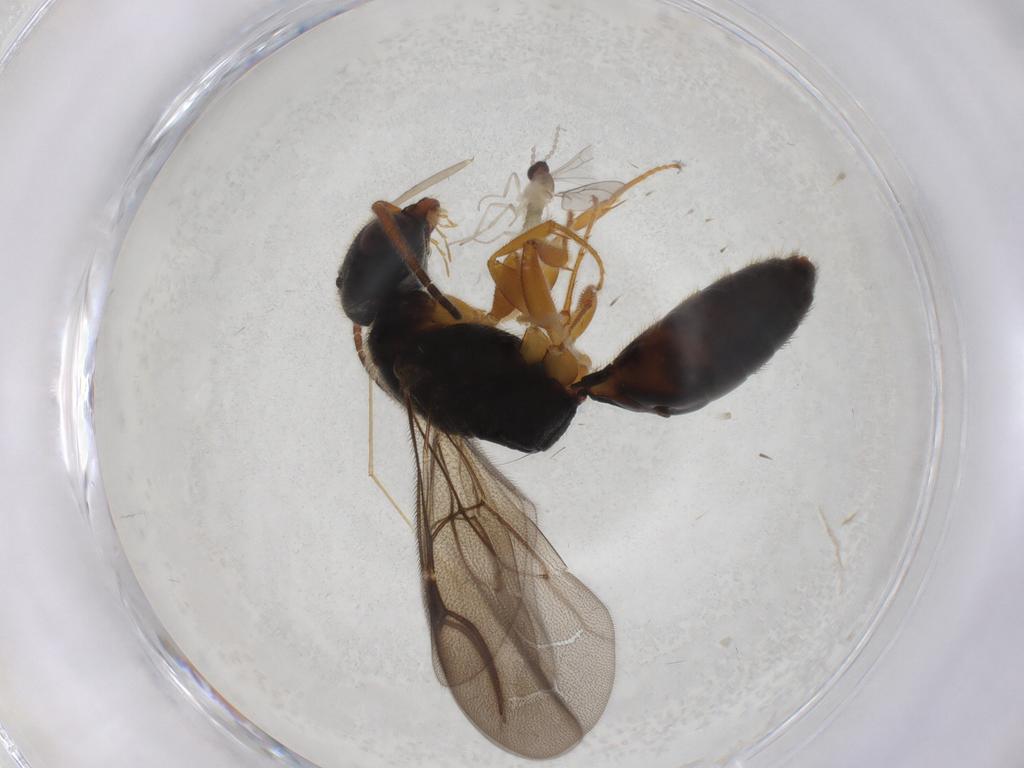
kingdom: Animalia
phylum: Arthropoda
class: Insecta
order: Hymenoptera
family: Bethylidae
